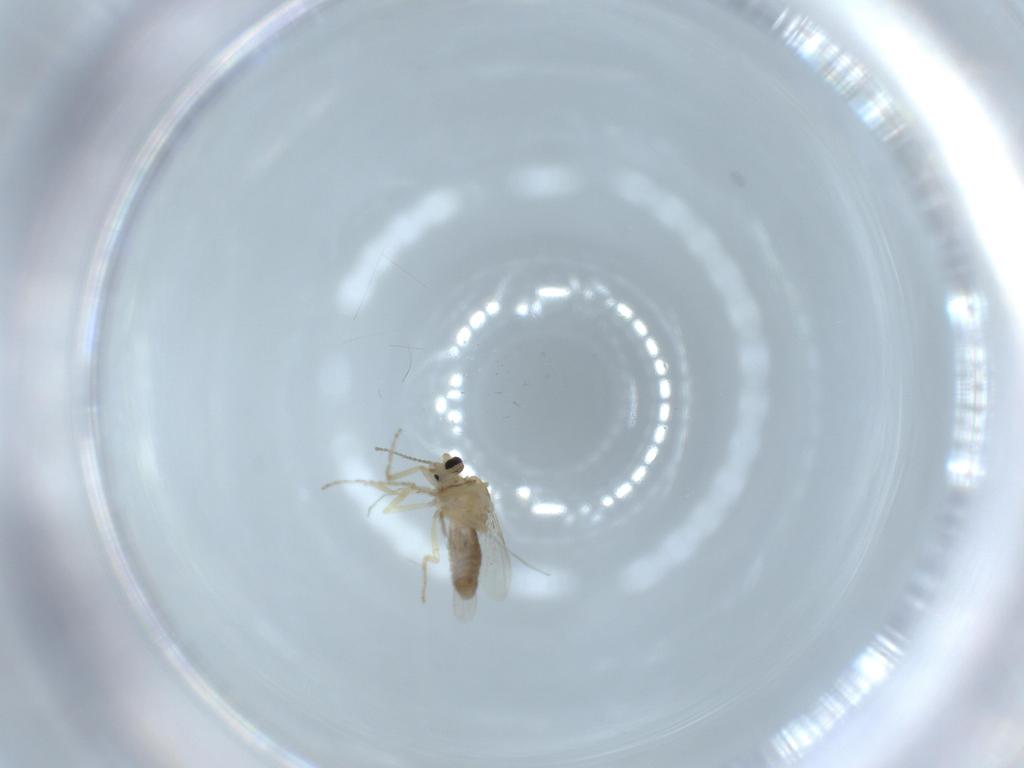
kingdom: Animalia
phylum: Arthropoda
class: Insecta
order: Diptera
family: Ceratopogonidae
